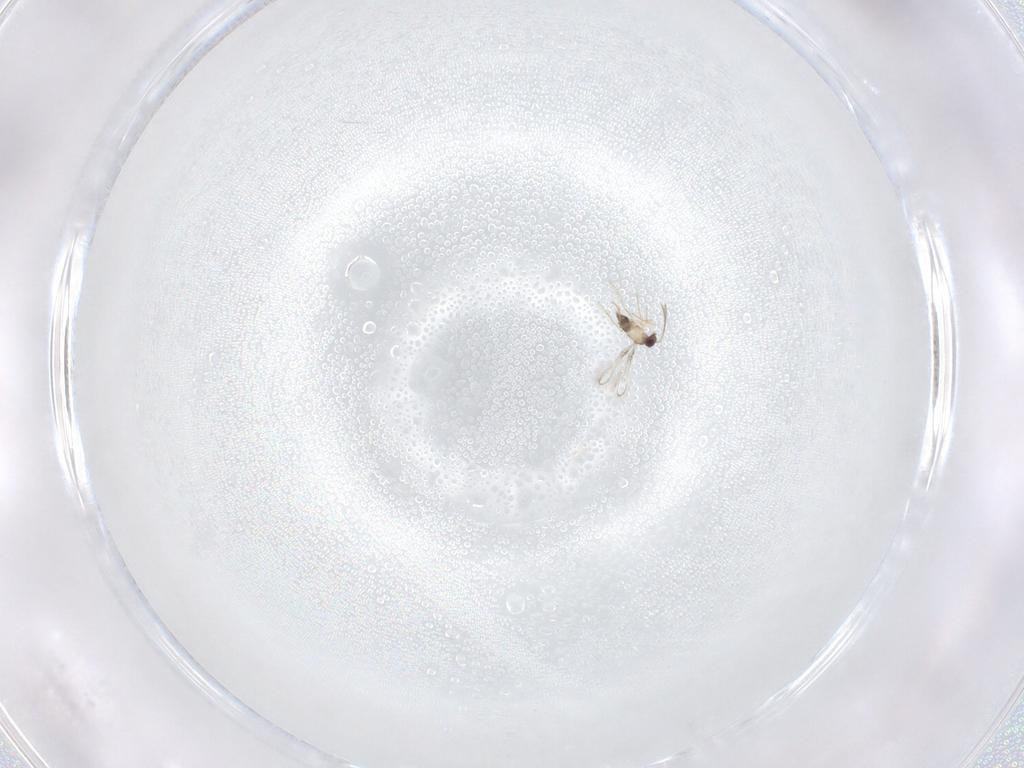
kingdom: Animalia
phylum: Arthropoda
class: Insecta
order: Hymenoptera
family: Mymaridae
